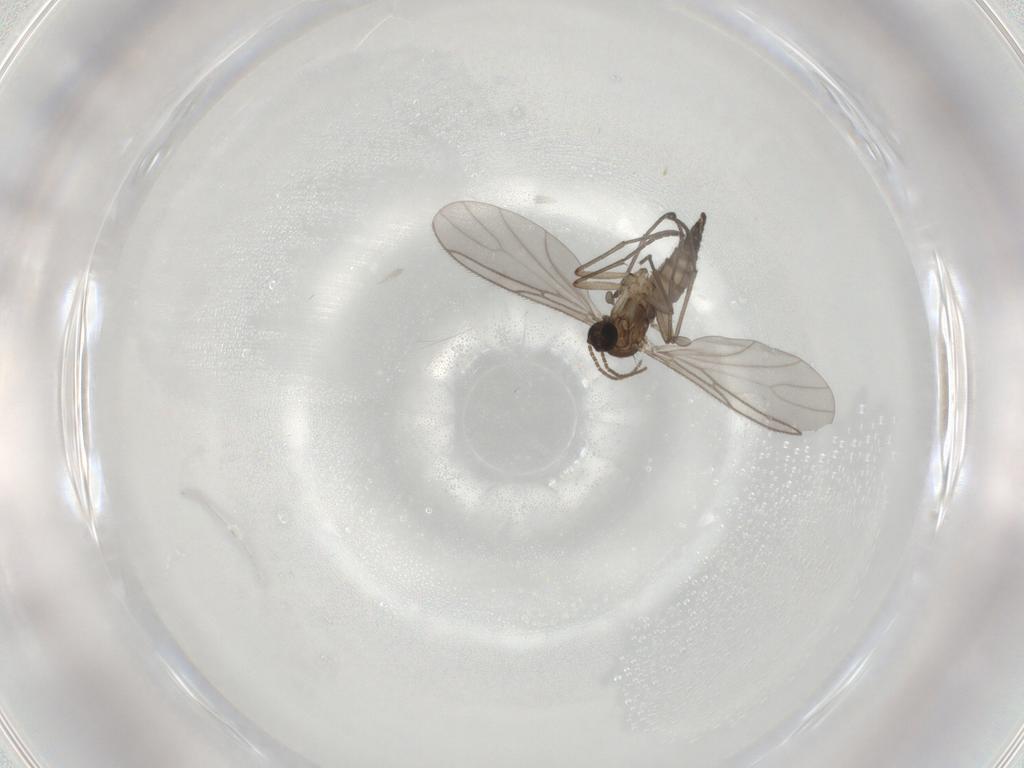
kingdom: Animalia
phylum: Arthropoda
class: Insecta
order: Diptera
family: Sciaridae
